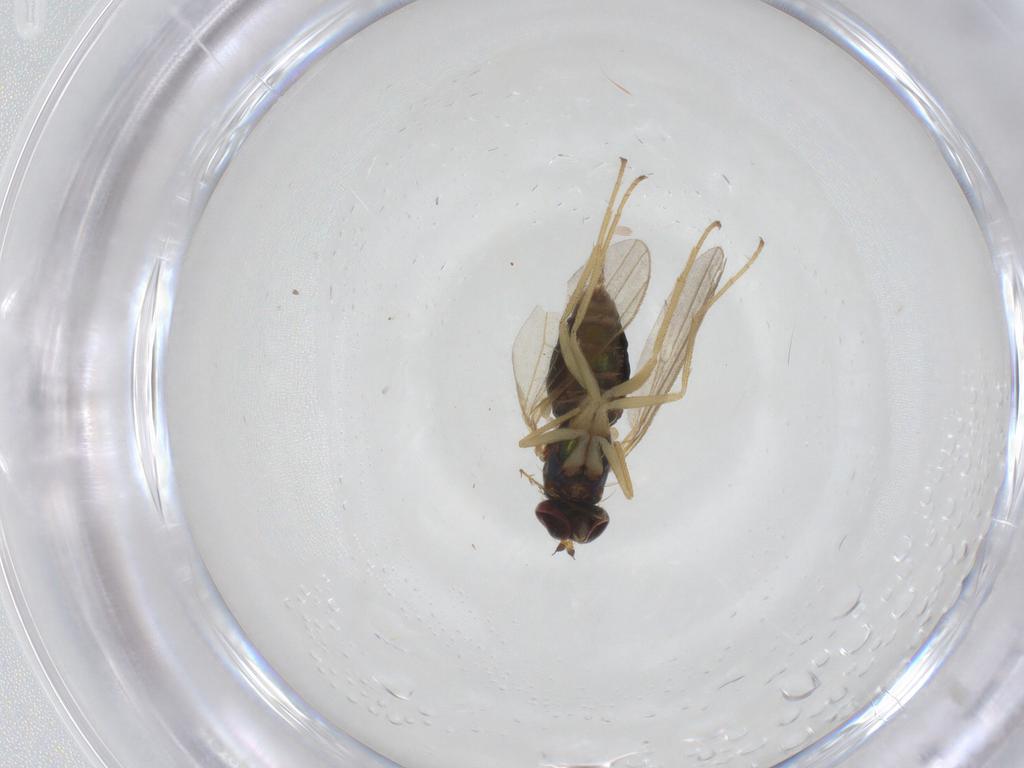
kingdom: Animalia
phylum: Arthropoda
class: Insecta
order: Diptera
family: Dolichopodidae
